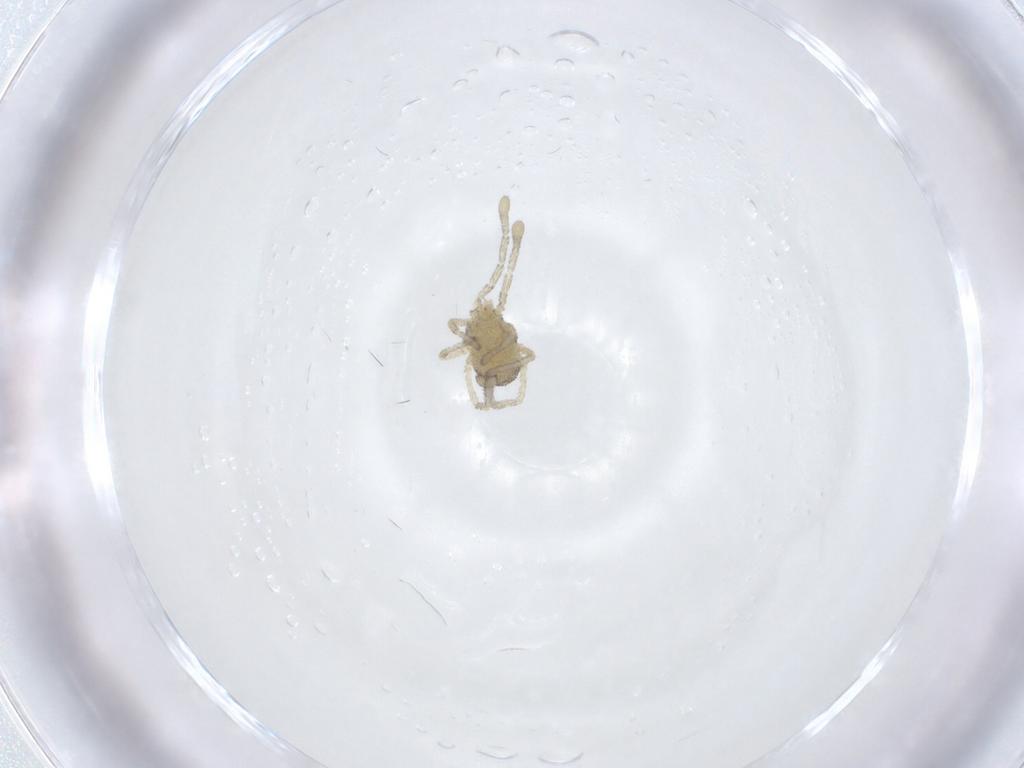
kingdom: Animalia
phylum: Arthropoda
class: Arachnida
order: Trombidiformes
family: Smarididae
